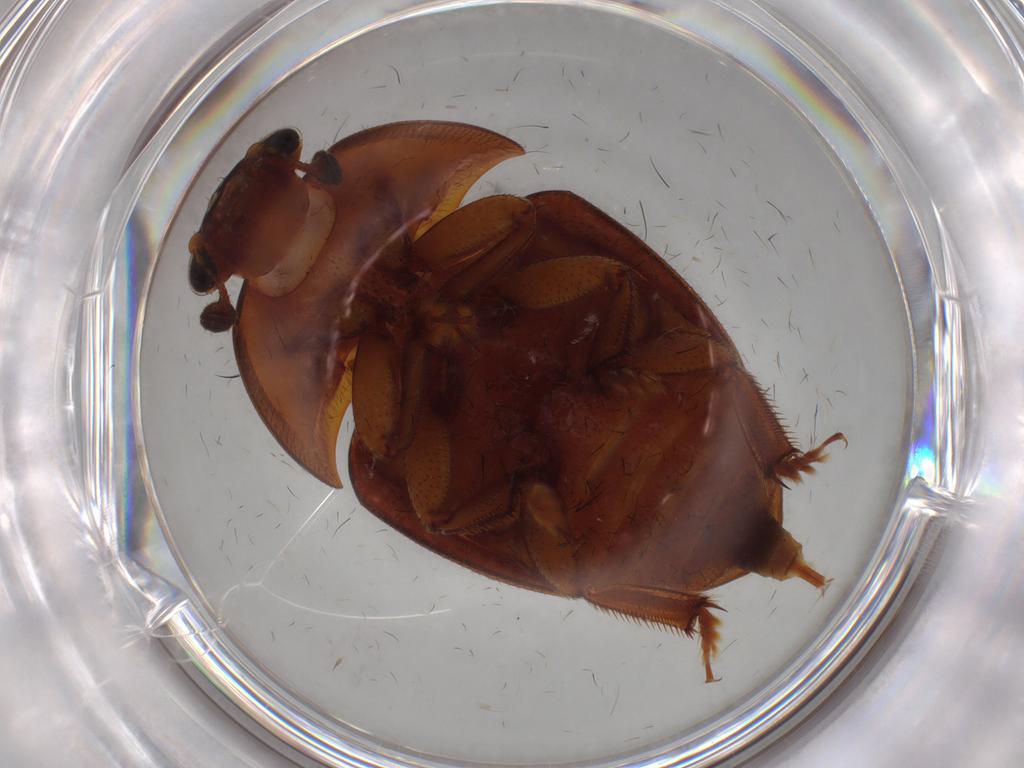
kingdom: Animalia
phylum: Arthropoda
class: Insecta
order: Coleoptera
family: Nitidulidae
